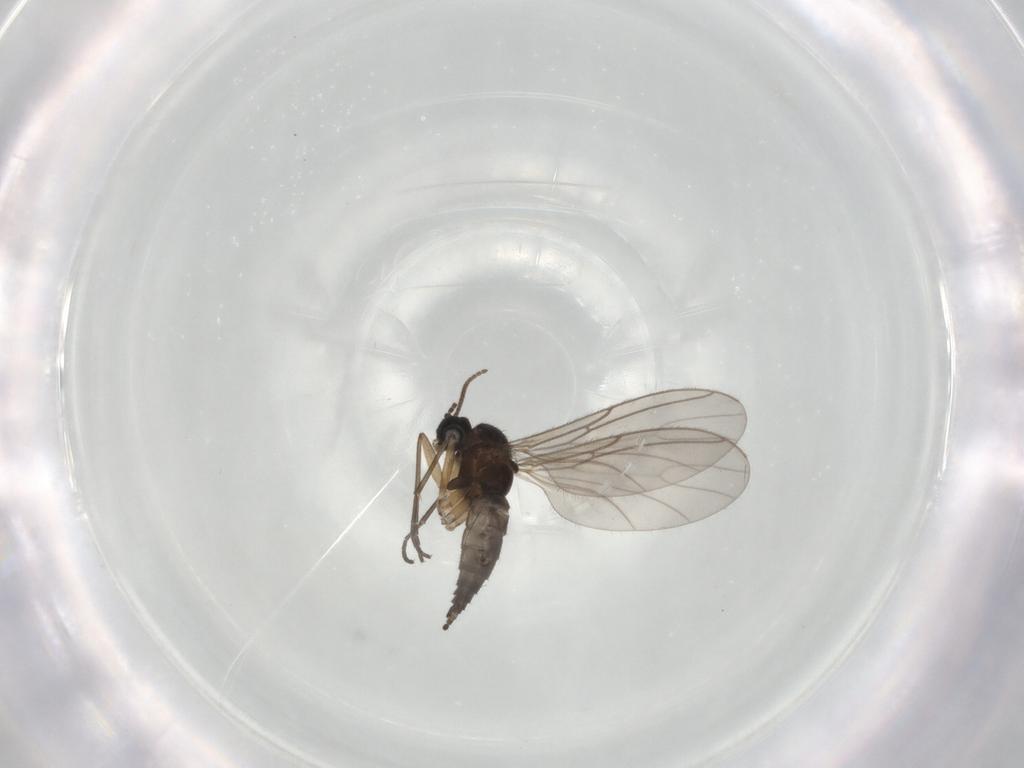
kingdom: Animalia
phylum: Arthropoda
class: Insecta
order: Diptera
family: Sciaridae
